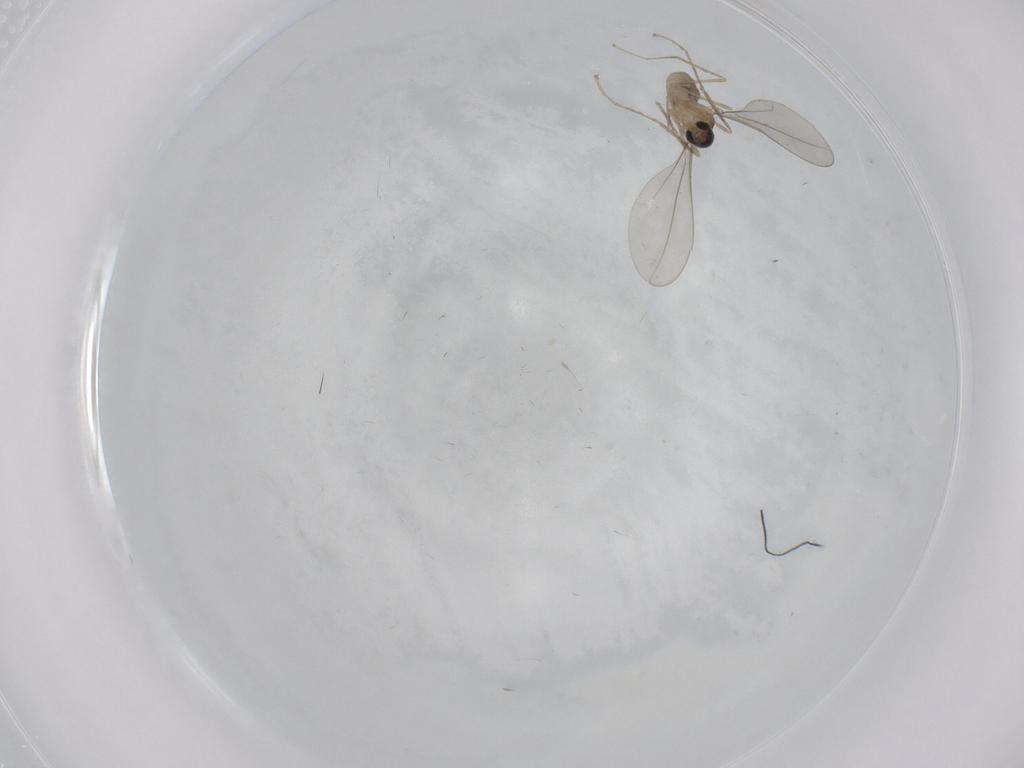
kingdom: Animalia
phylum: Arthropoda
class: Insecta
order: Diptera
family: Cecidomyiidae
